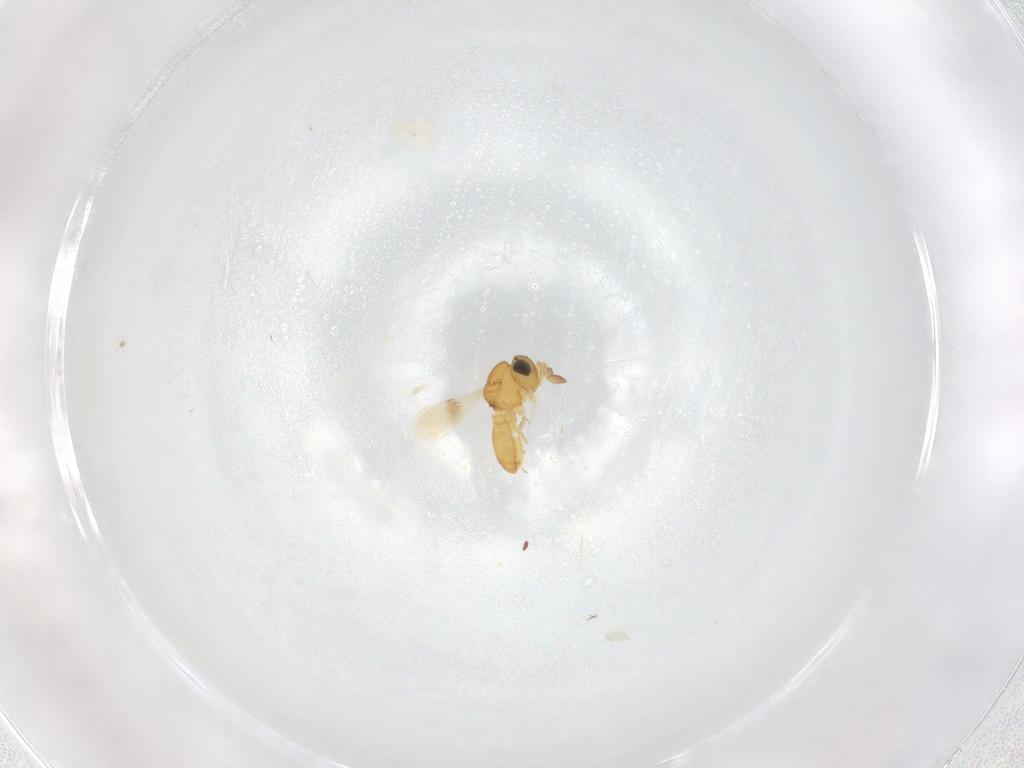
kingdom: Animalia
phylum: Arthropoda
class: Insecta
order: Hymenoptera
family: Scelionidae
